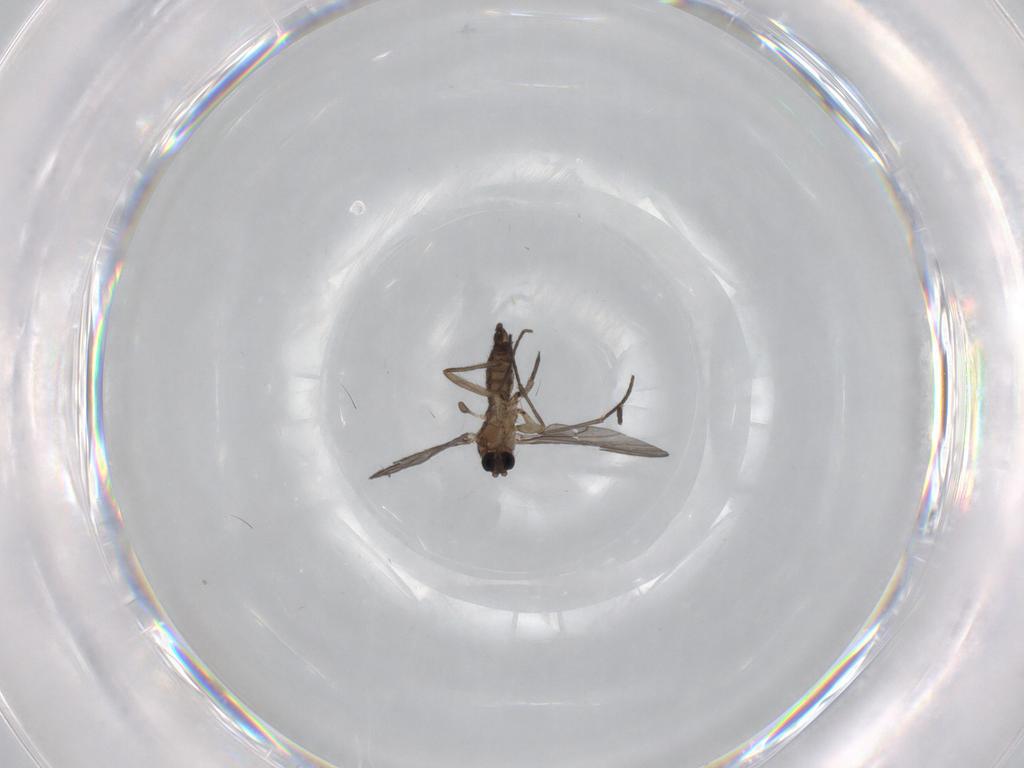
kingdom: Animalia
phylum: Arthropoda
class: Insecta
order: Diptera
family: Sciaridae
